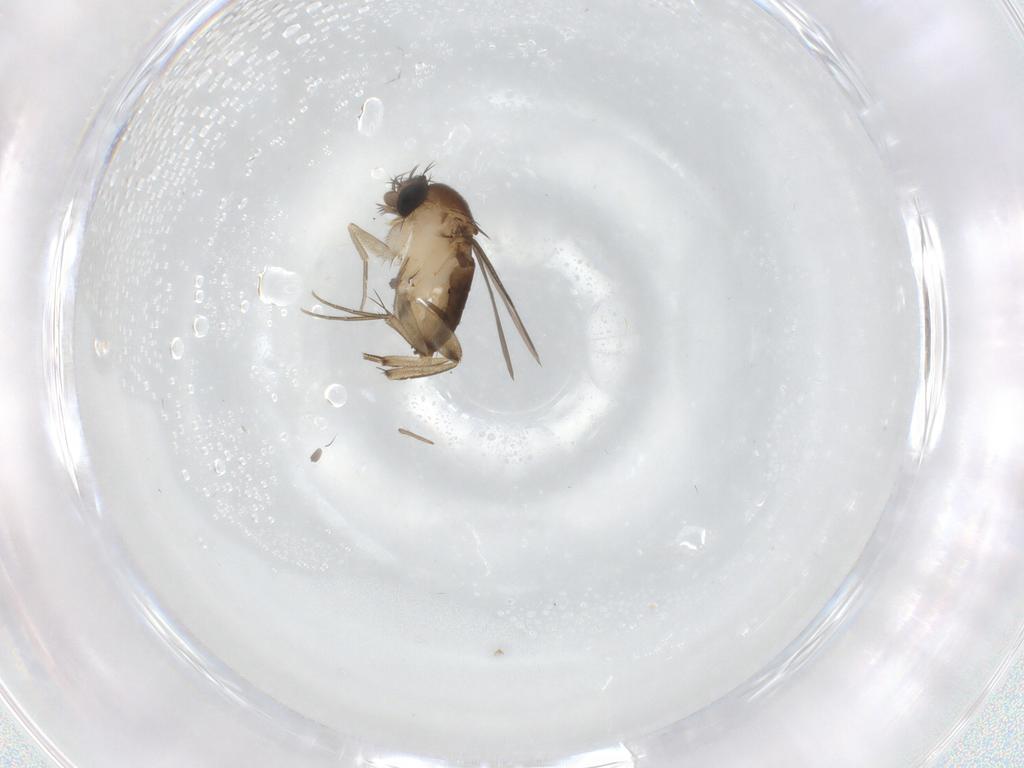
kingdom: Animalia
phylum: Arthropoda
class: Insecta
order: Diptera
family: Phoridae
